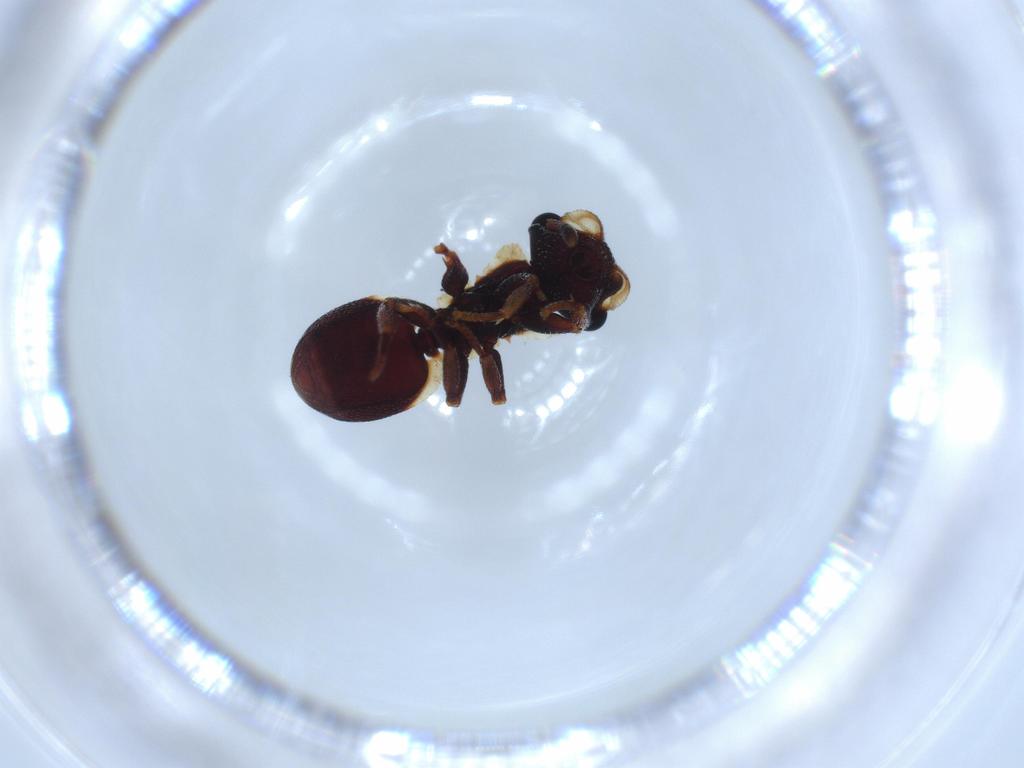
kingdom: Animalia
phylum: Arthropoda
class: Insecta
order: Hymenoptera
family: Formicidae
